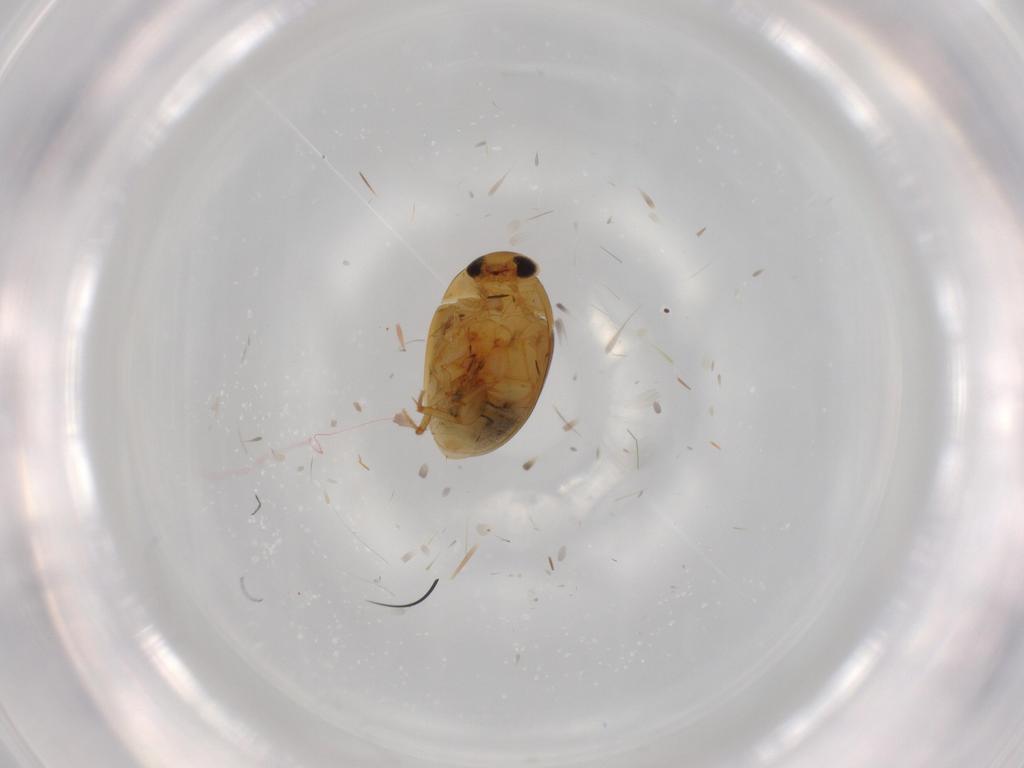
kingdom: Animalia
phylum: Arthropoda
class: Insecta
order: Coleoptera
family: Phalacridae
